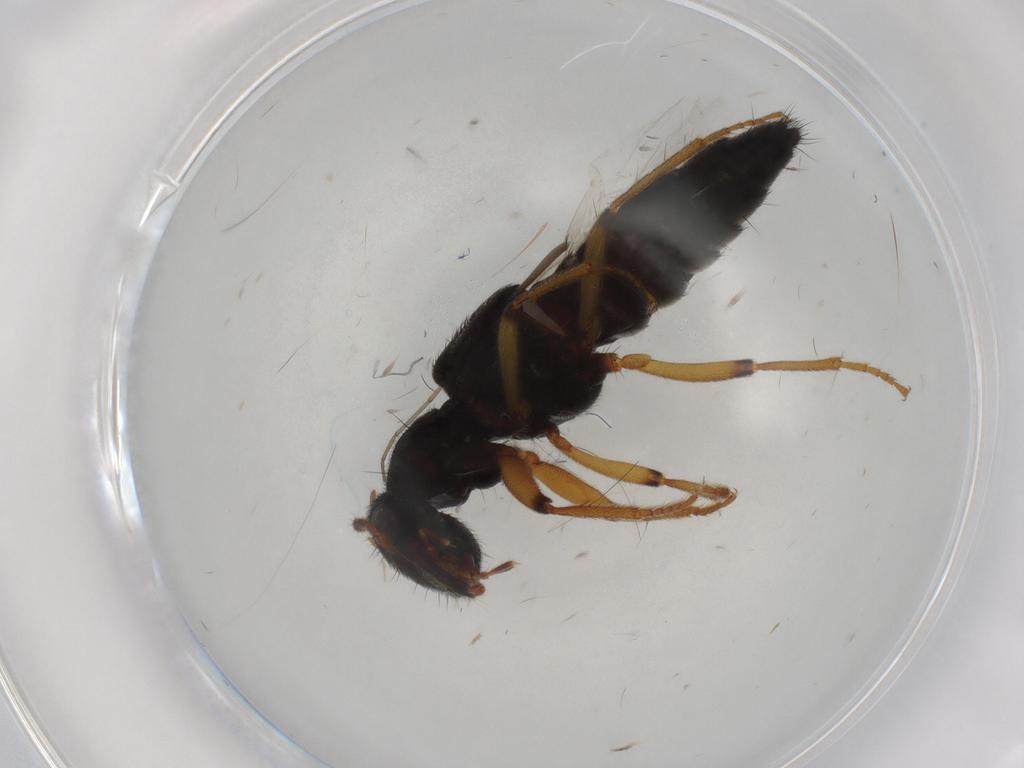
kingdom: Animalia
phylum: Arthropoda
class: Insecta
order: Coleoptera
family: Staphylinidae
